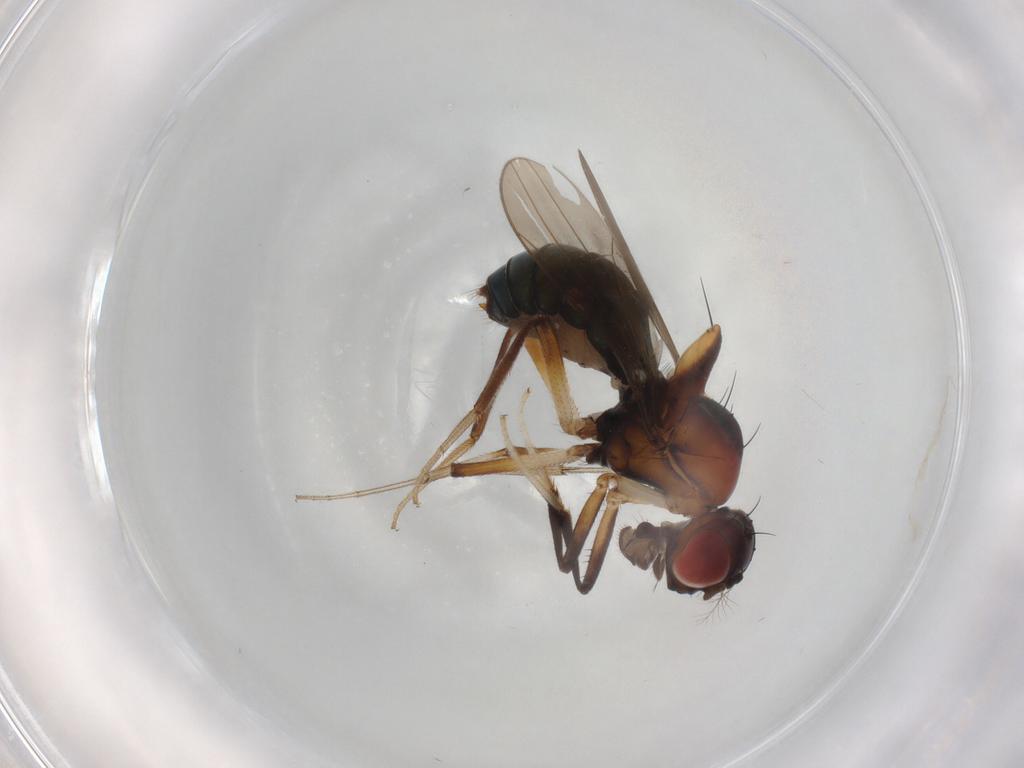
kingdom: Animalia
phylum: Arthropoda
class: Insecta
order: Diptera
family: Drosophilidae
